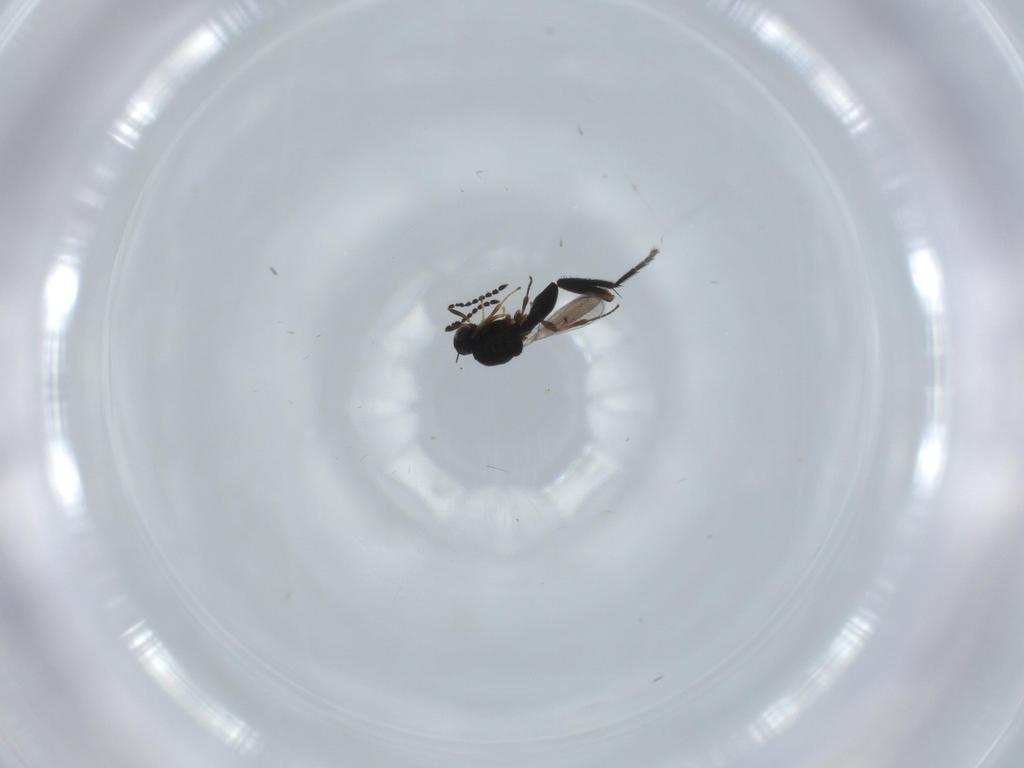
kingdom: Animalia
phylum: Arthropoda
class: Insecta
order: Hymenoptera
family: Platygastridae
